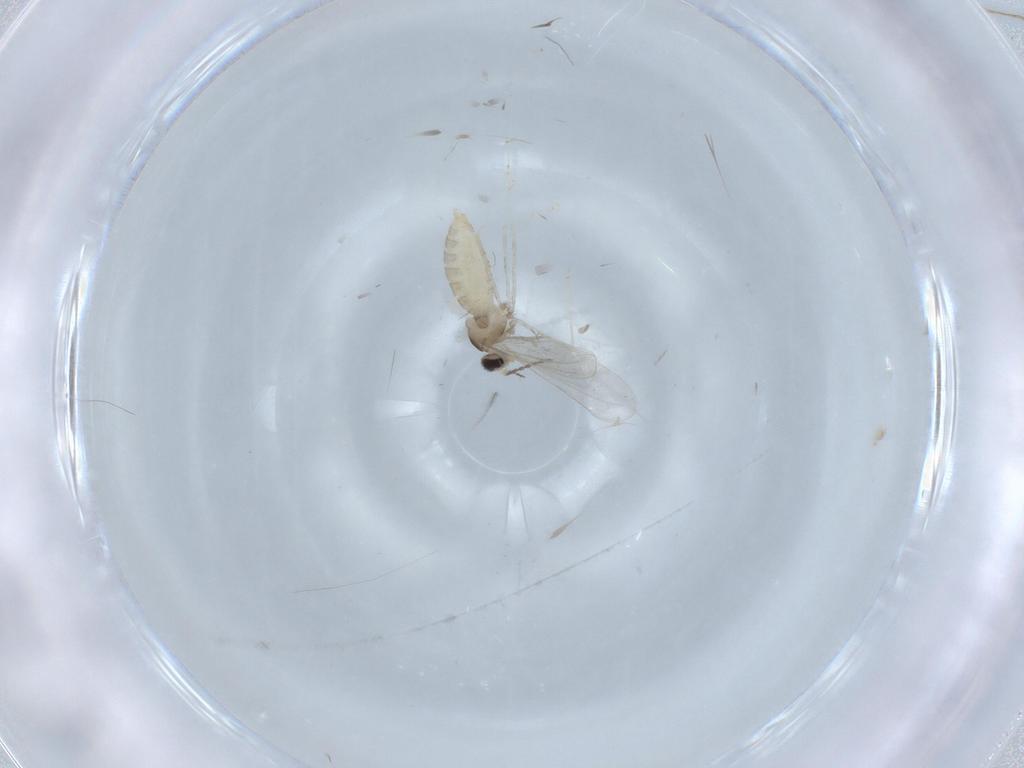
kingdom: Animalia
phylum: Arthropoda
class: Insecta
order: Diptera
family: Cecidomyiidae
